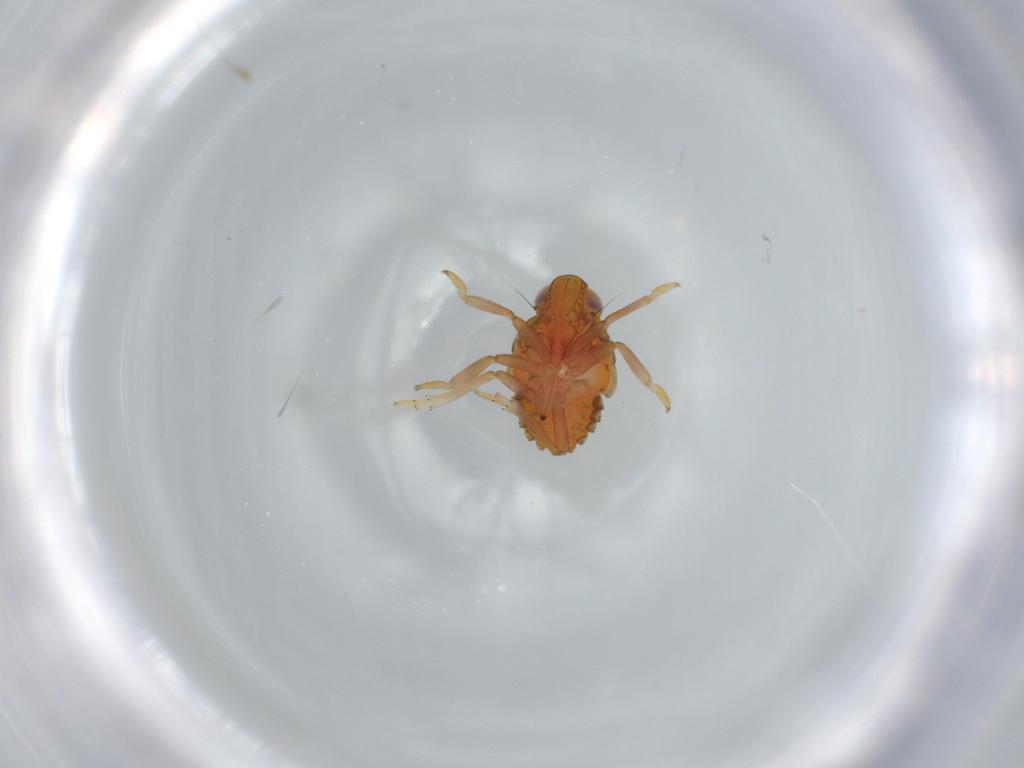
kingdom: Animalia
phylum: Arthropoda
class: Insecta
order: Hemiptera
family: Issidae
